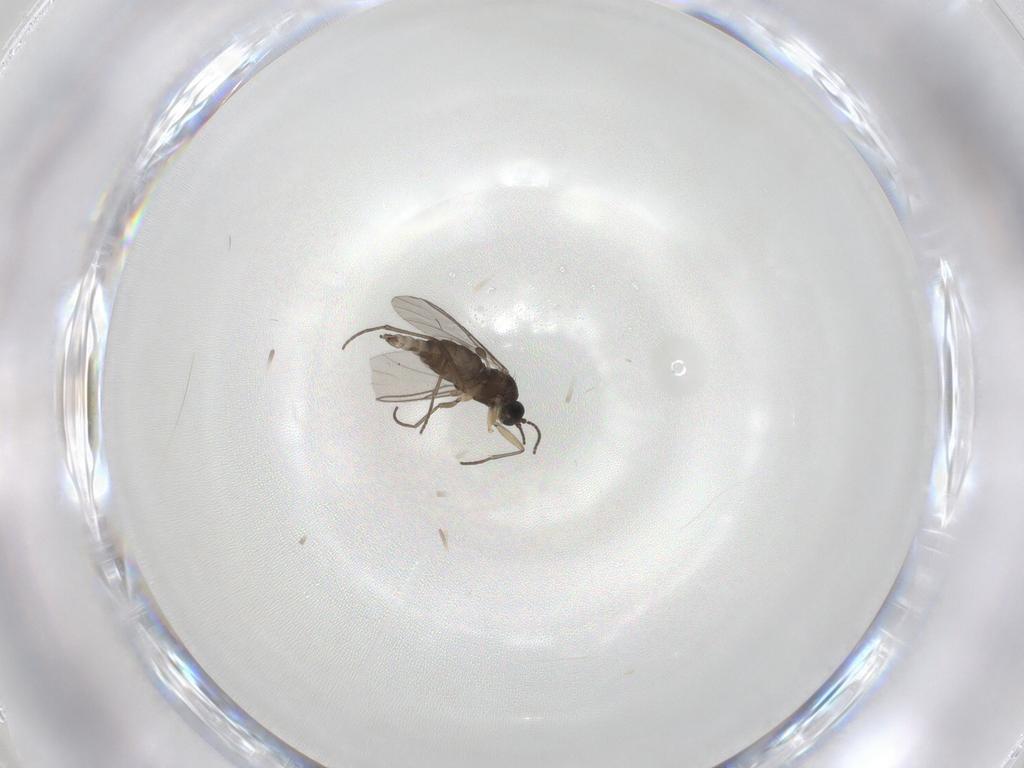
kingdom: Animalia
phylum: Arthropoda
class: Insecta
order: Diptera
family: Sciaridae
